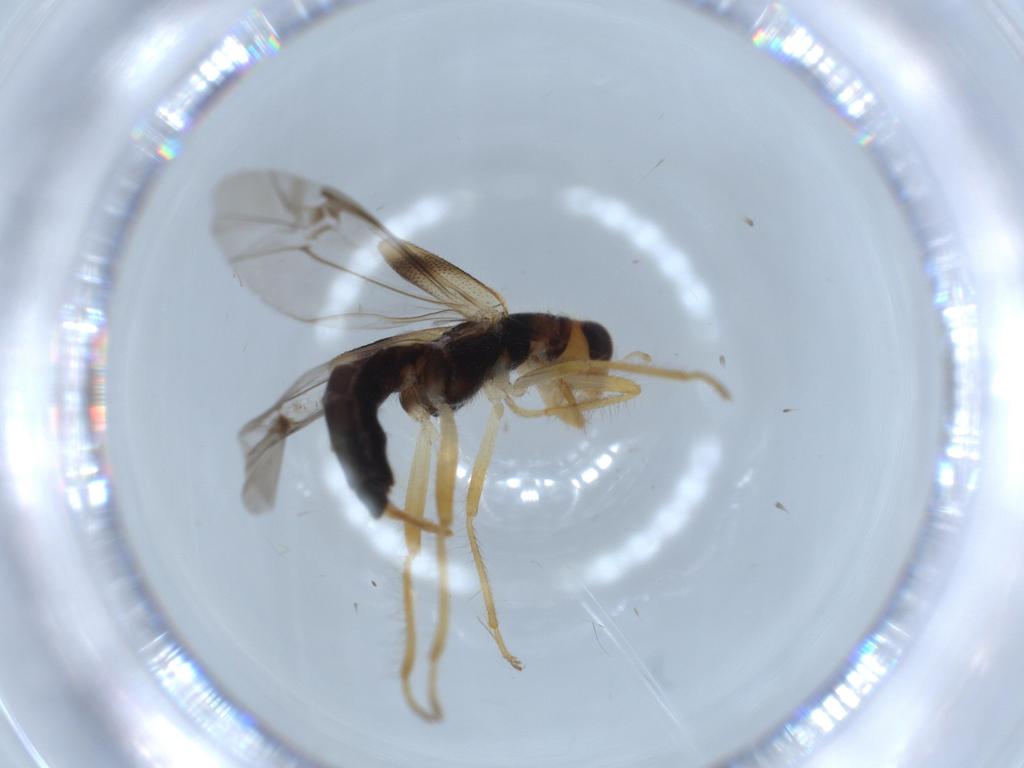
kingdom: Animalia
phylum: Arthropoda
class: Insecta
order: Coleoptera
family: Cleridae
